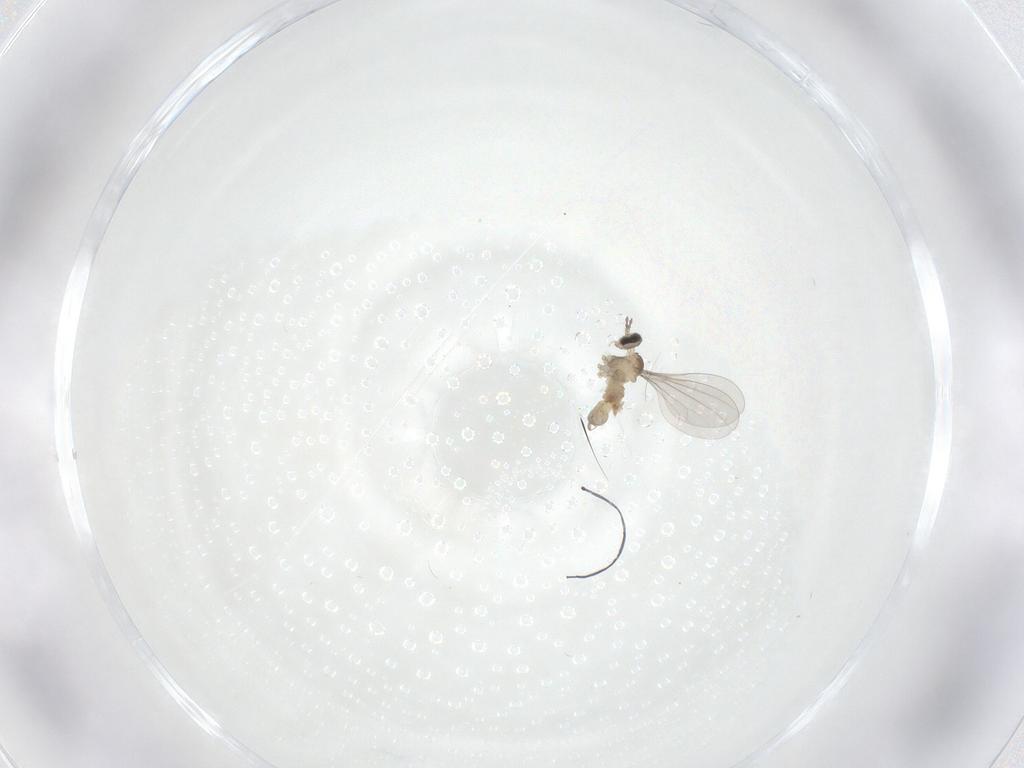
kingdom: Animalia
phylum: Arthropoda
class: Insecta
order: Diptera
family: Cecidomyiidae
